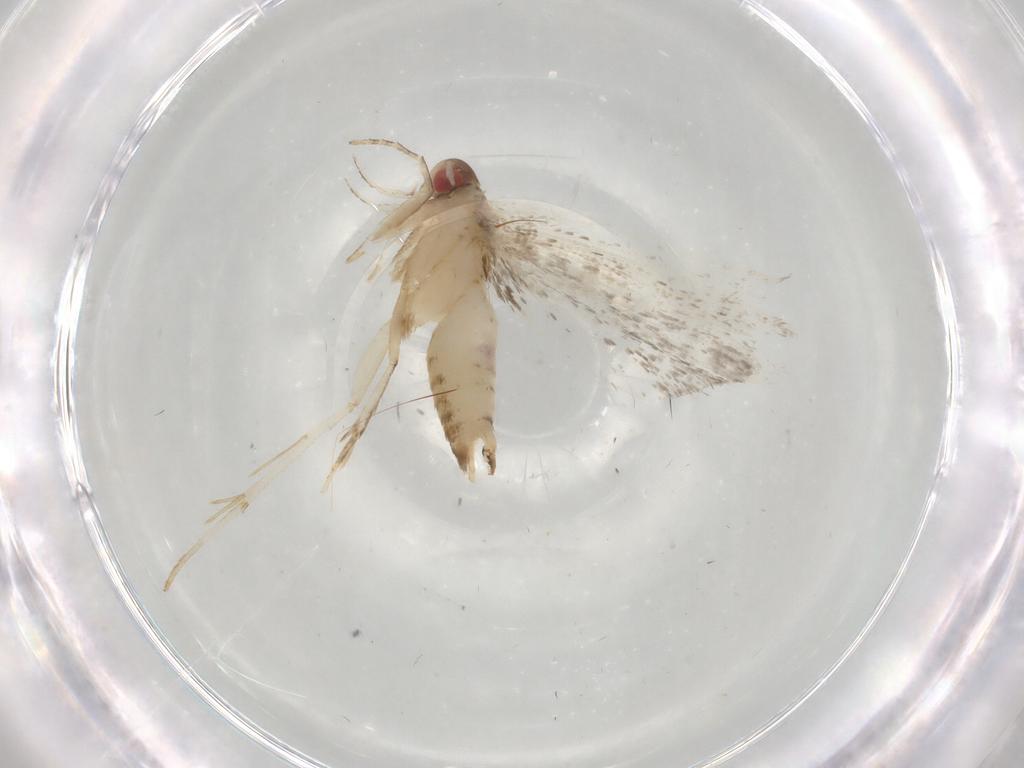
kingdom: Animalia
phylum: Arthropoda
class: Insecta
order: Lepidoptera
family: Gelechiidae
